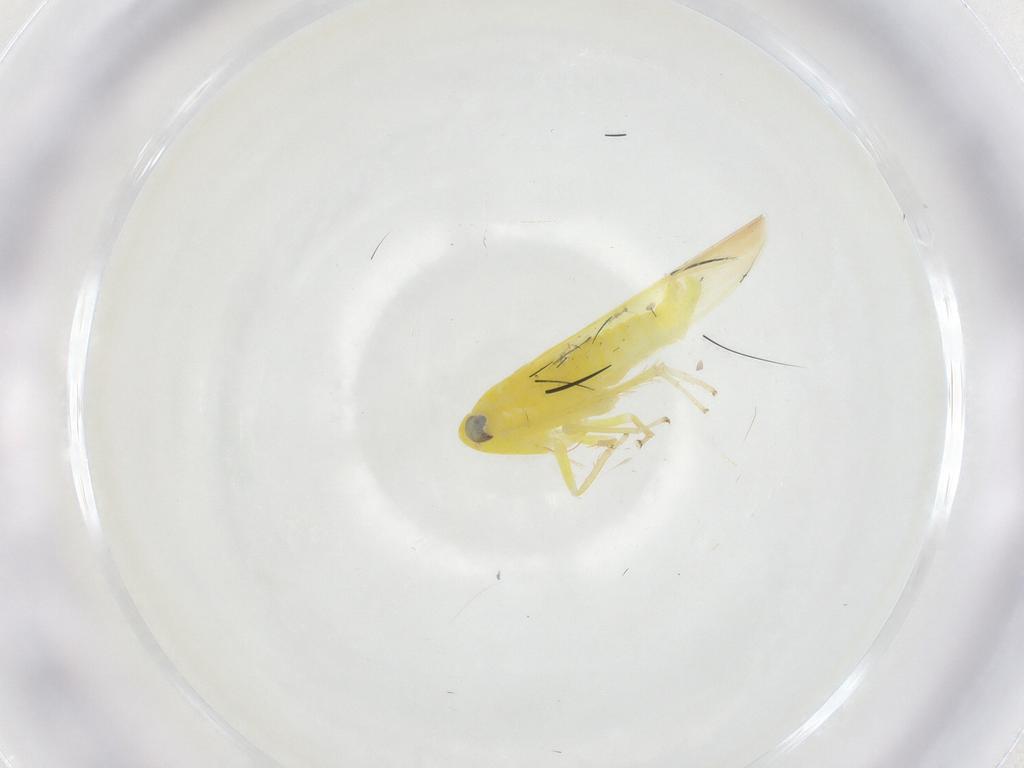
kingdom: Animalia
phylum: Arthropoda
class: Insecta
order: Hemiptera
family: Cicadellidae
